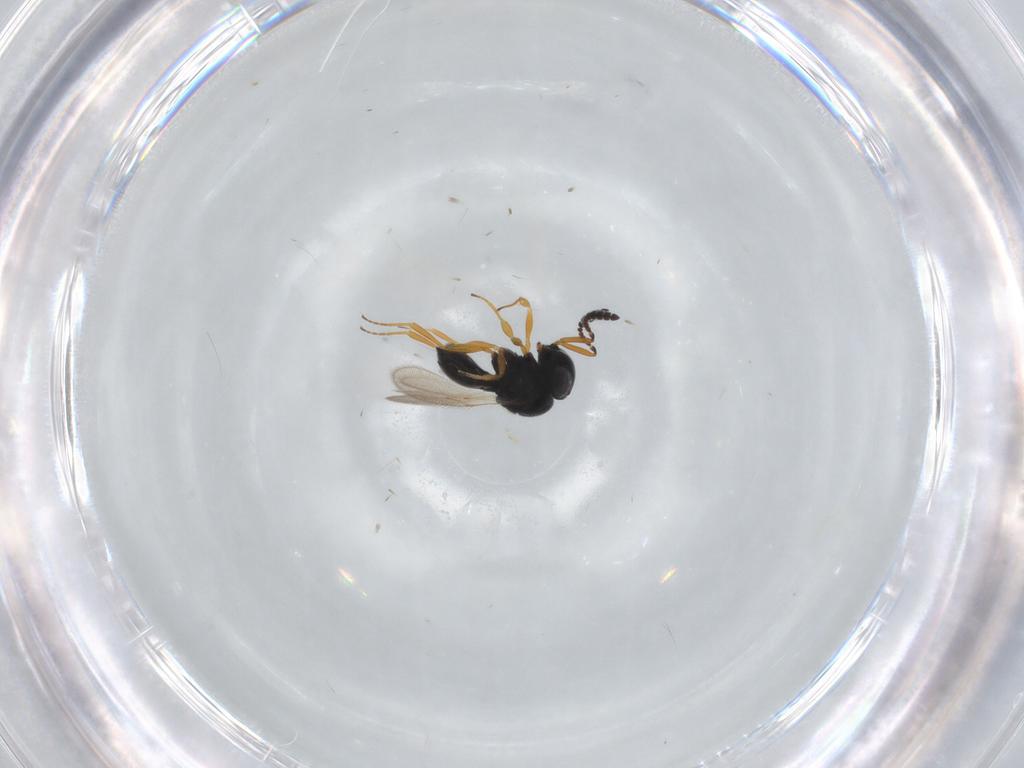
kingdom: Animalia
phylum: Arthropoda
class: Insecta
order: Hymenoptera
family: Scelionidae
